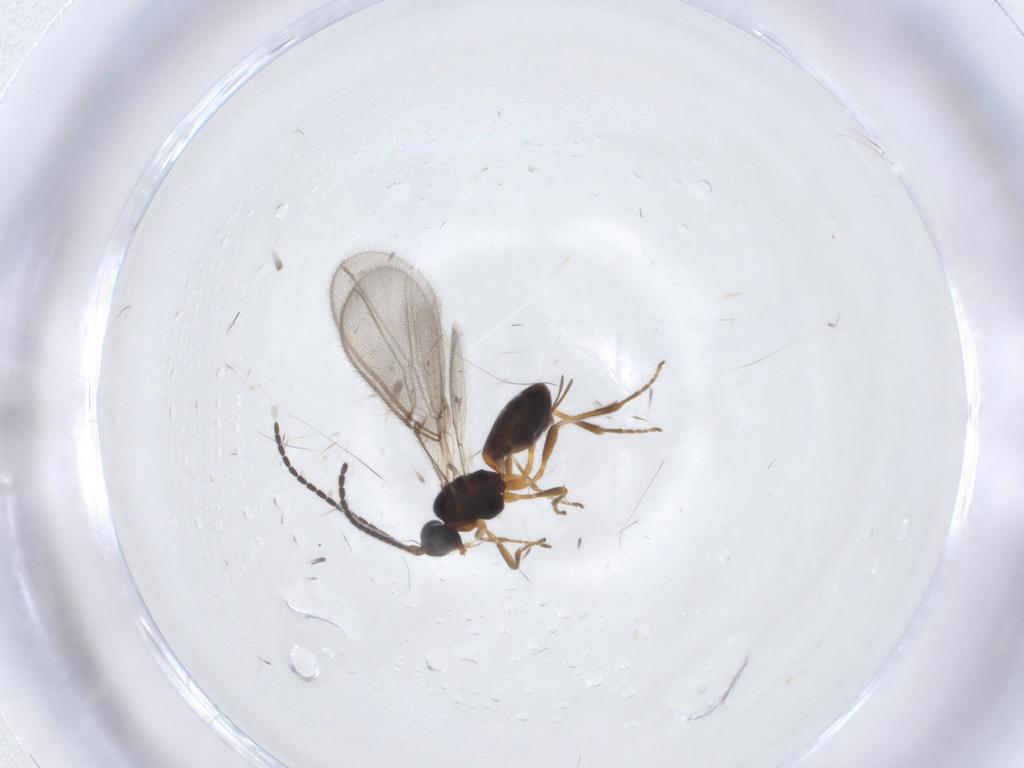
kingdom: Animalia
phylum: Arthropoda
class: Insecta
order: Hymenoptera
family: Braconidae
